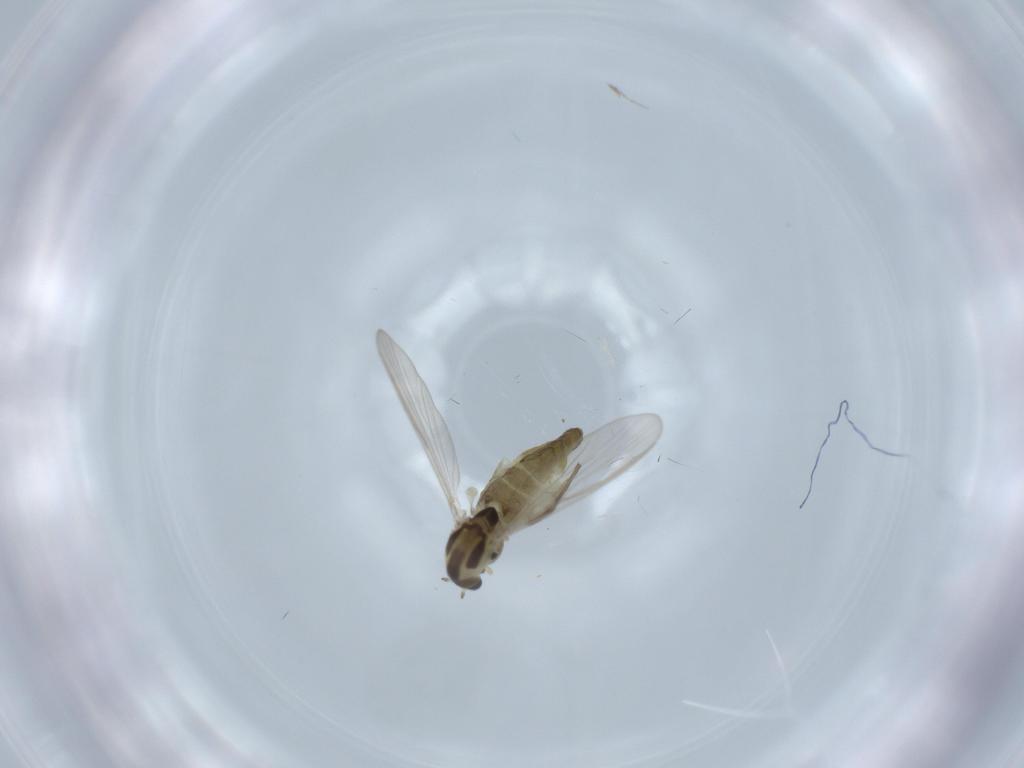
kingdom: Animalia
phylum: Arthropoda
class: Insecta
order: Diptera
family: Chironomidae
